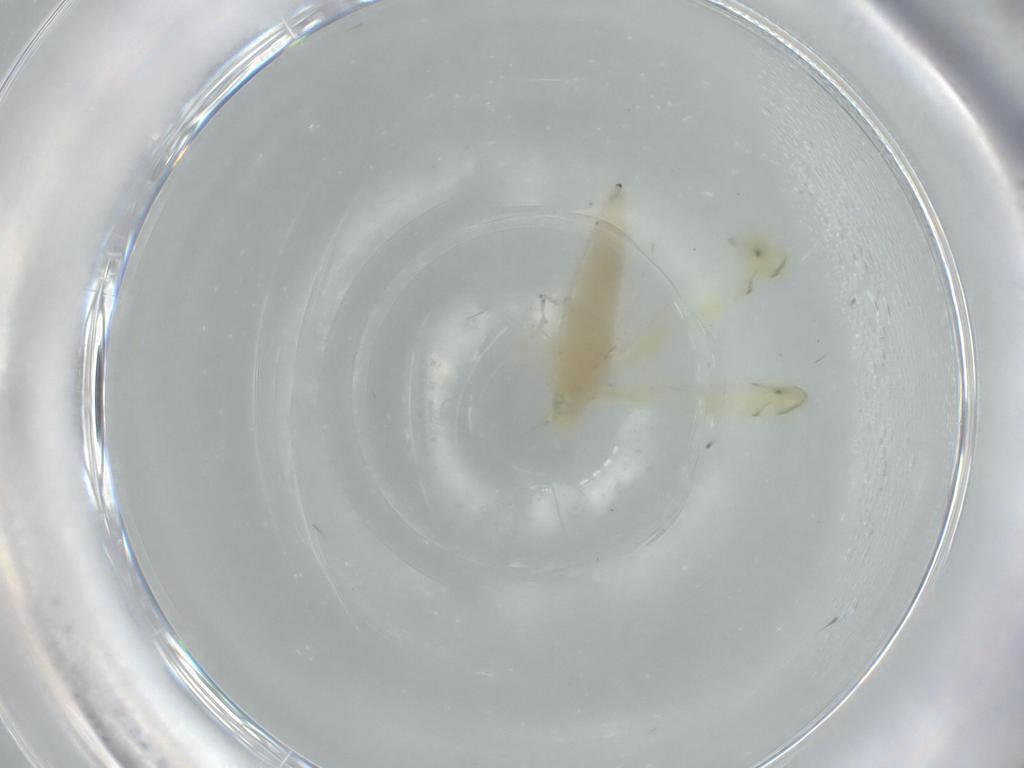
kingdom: Animalia
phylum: Arthropoda
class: Insecta
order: Hemiptera
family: Cicadellidae
